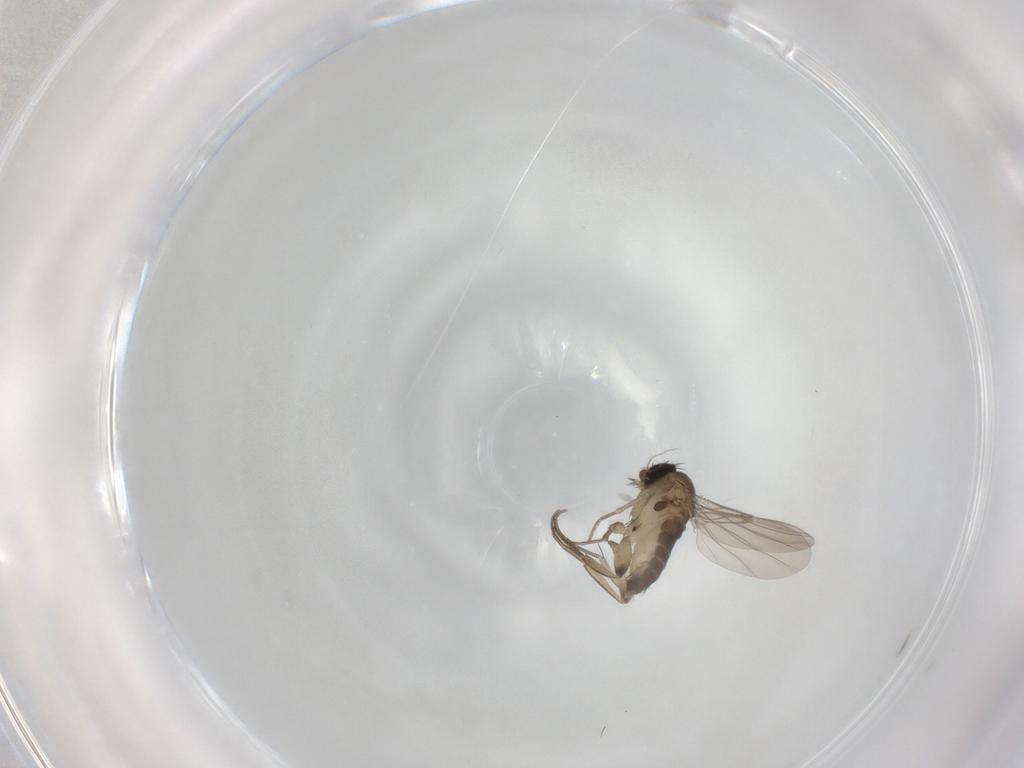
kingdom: Animalia
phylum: Arthropoda
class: Insecta
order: Diptera
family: Phoridae
